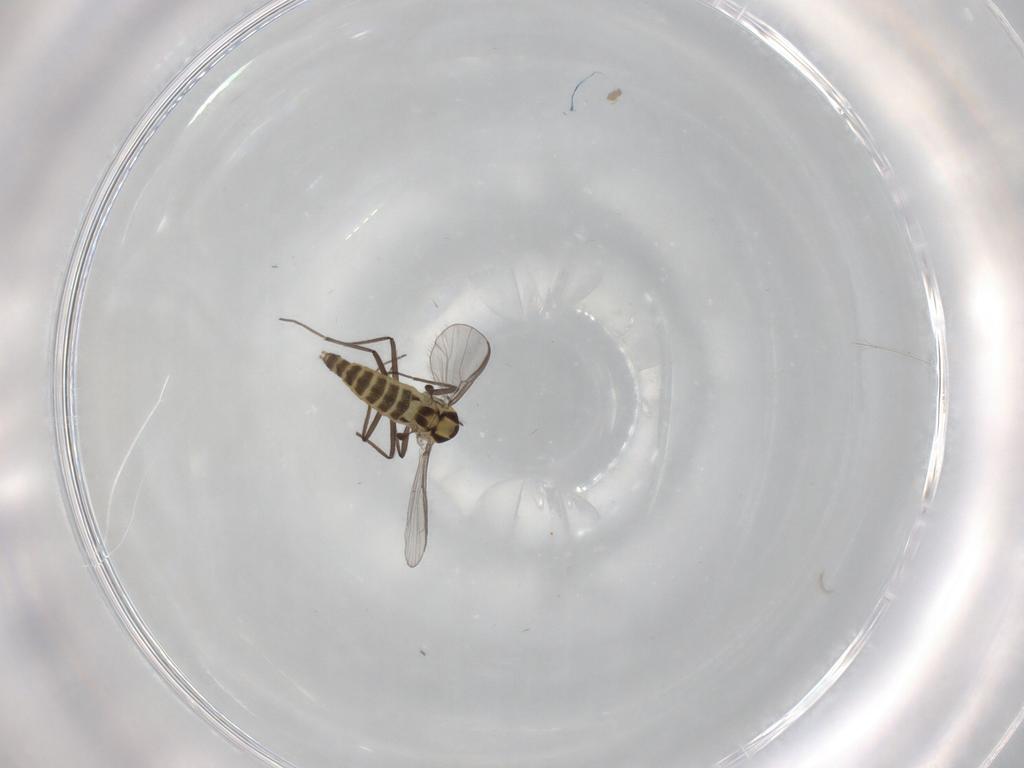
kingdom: Animalia
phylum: Arthropoda
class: Insecta
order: Diptera
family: Chironomidae
